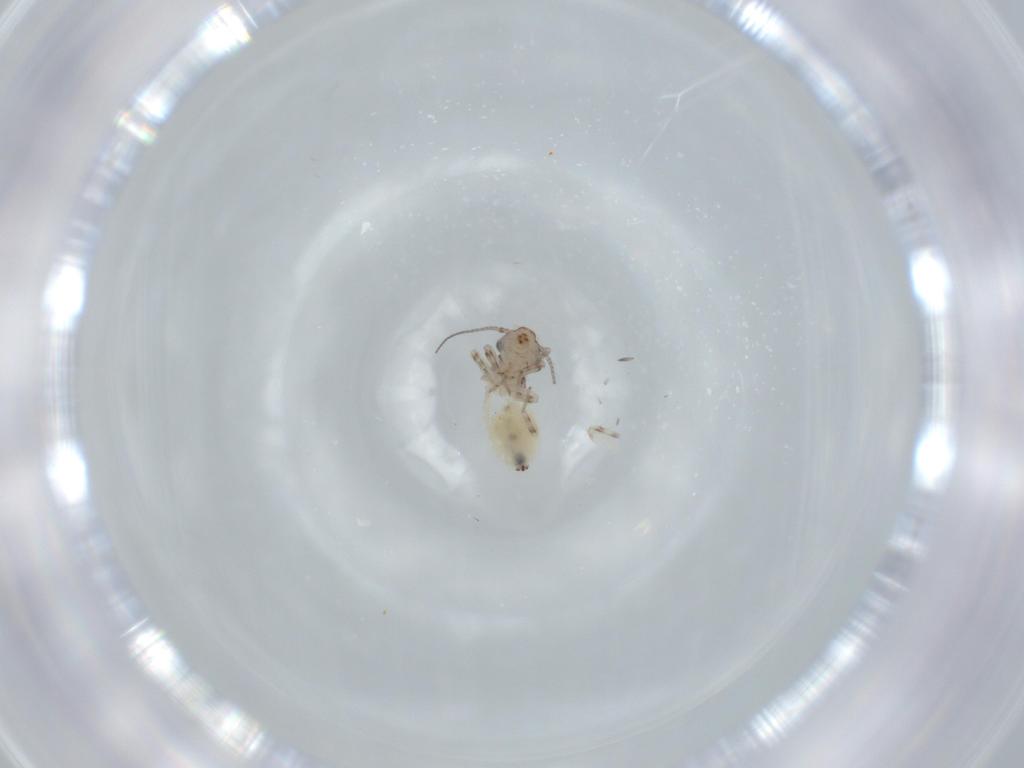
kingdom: Animalia
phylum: Arthropoda
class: Insecta
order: Psocodea
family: Lepidopsocidae
